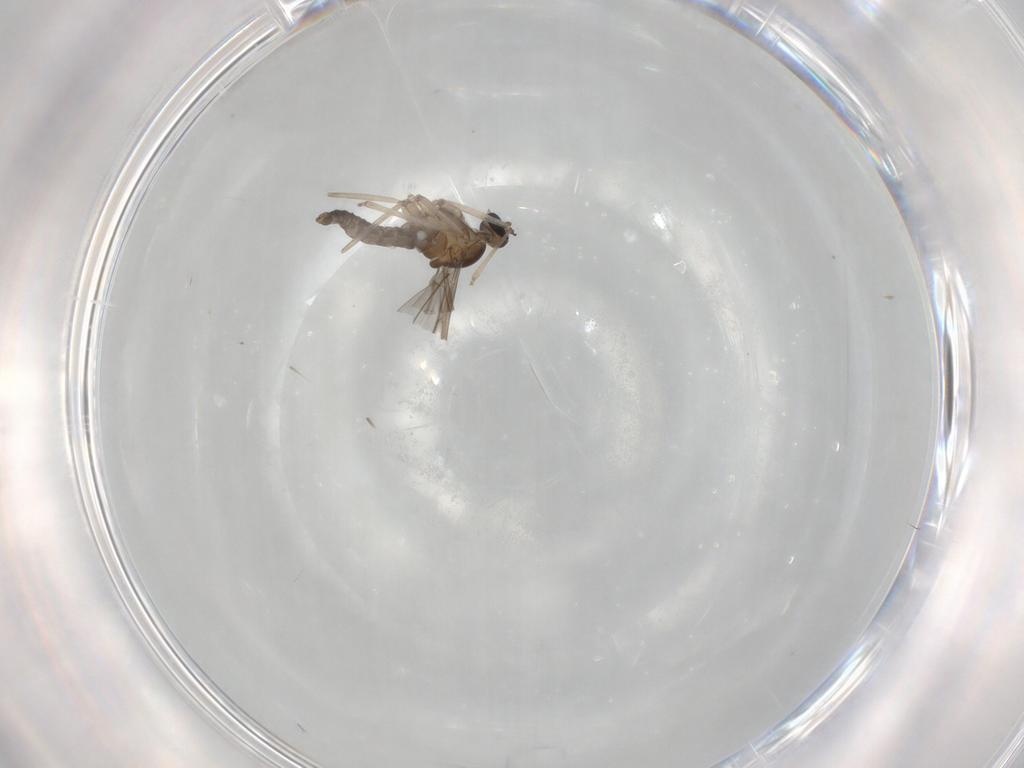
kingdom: Animalia
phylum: Arthropoda
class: Insecta
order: Diptera
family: Cecidomyiidae
